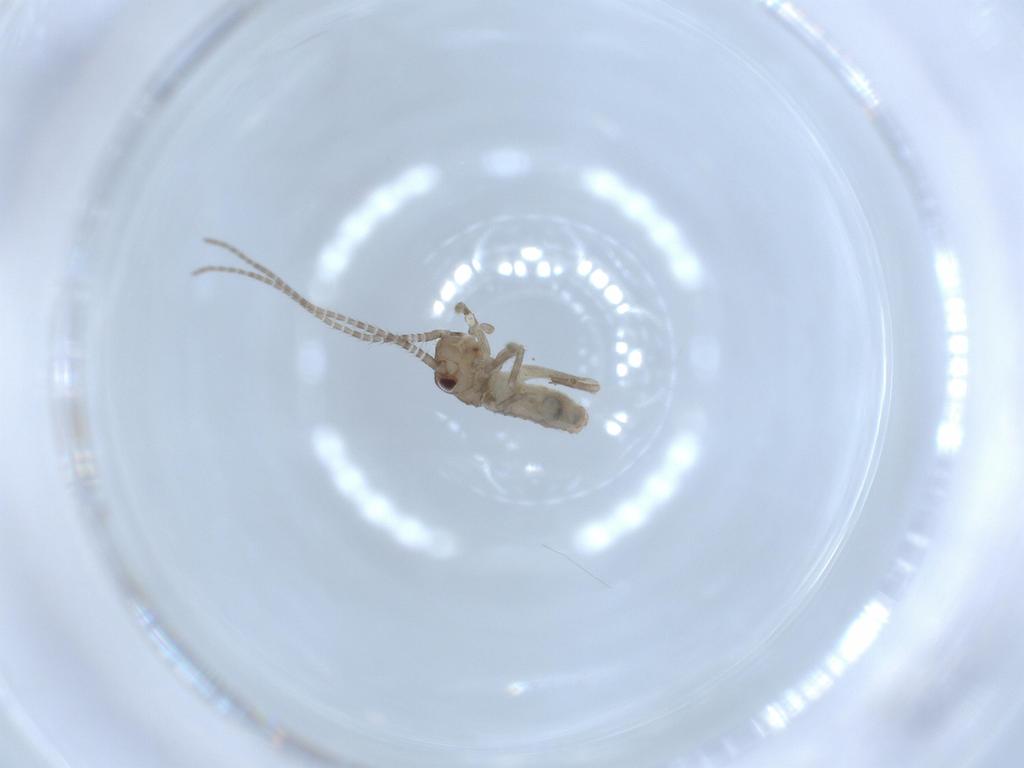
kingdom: Animalia
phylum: Arthropoda
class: Insecta
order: Orthoptera
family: Gryllidae
